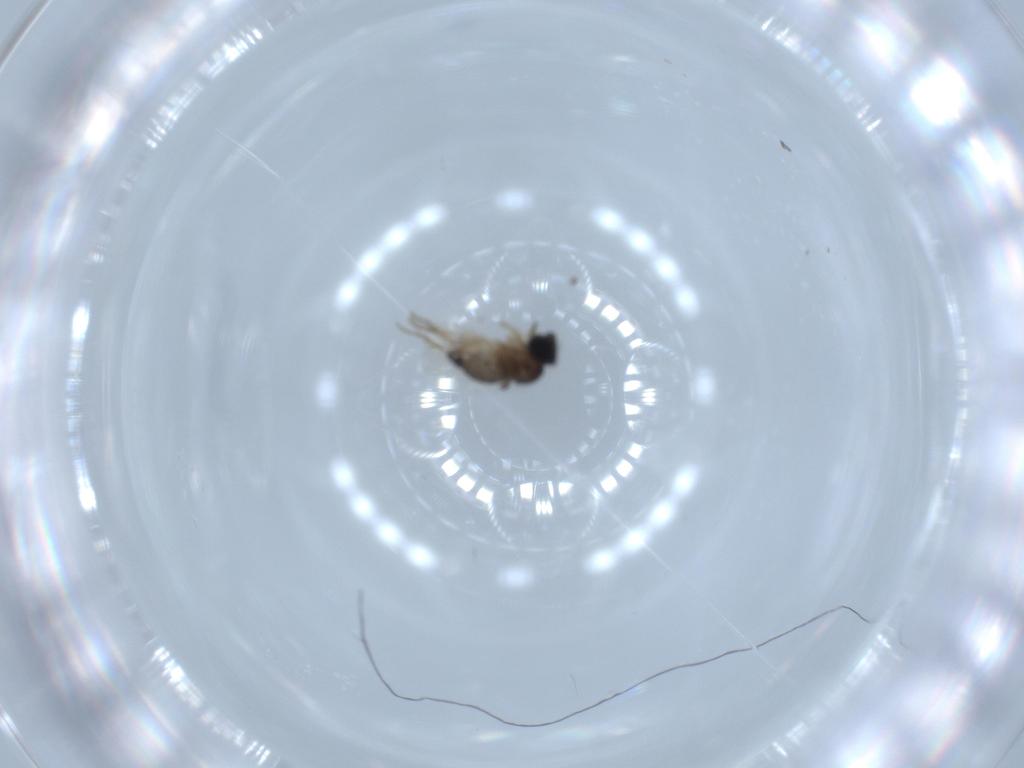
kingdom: Animalia
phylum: Arthropoda
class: Insecta
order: Diptera
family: Phoridae
